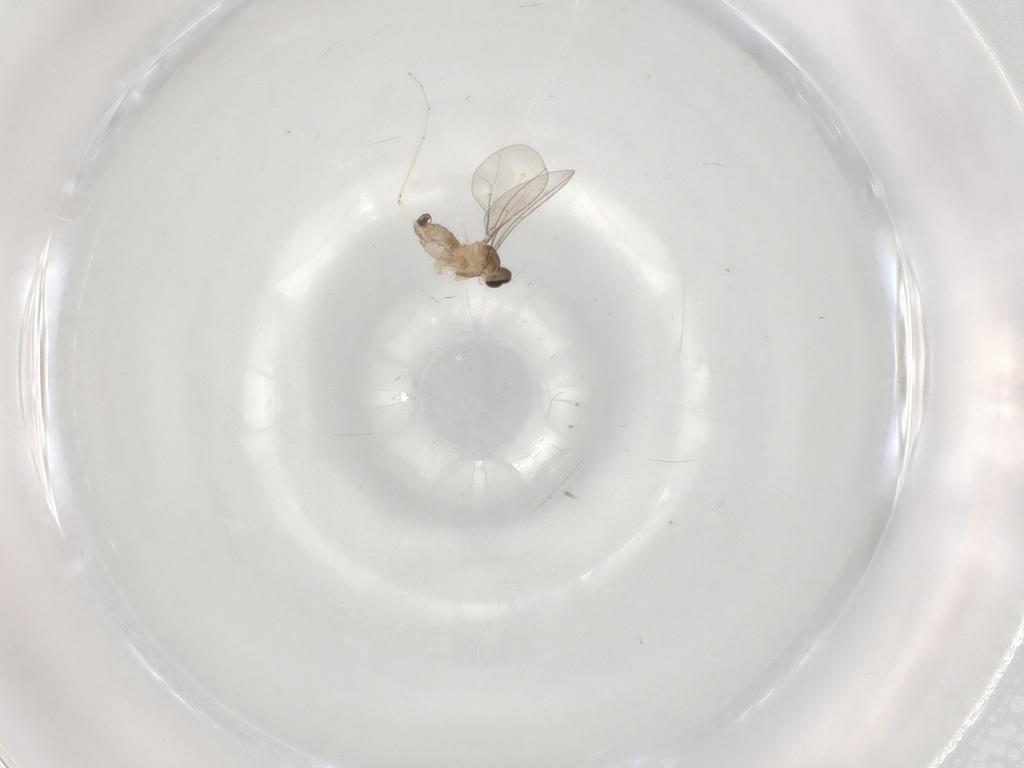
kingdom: Animalia
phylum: Arthropoda
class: Insecta
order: Diptera
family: Cecidomyiidae
